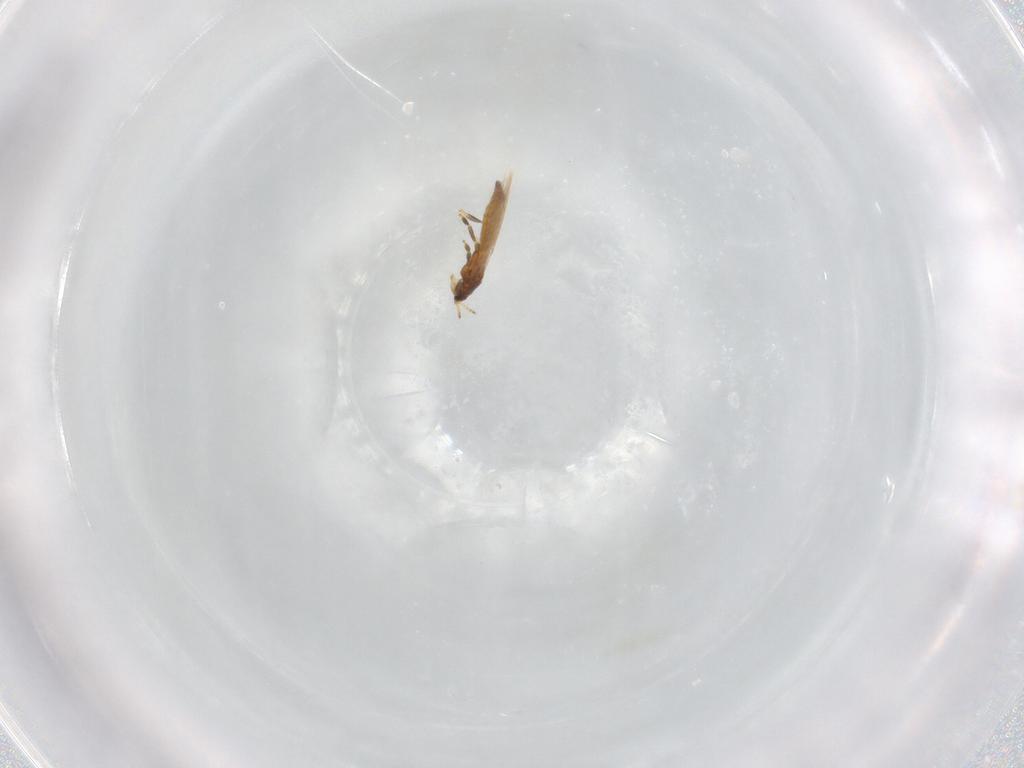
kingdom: Animalia
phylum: Arthropoda
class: Insecta
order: Thysanoptera
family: Thripidae
